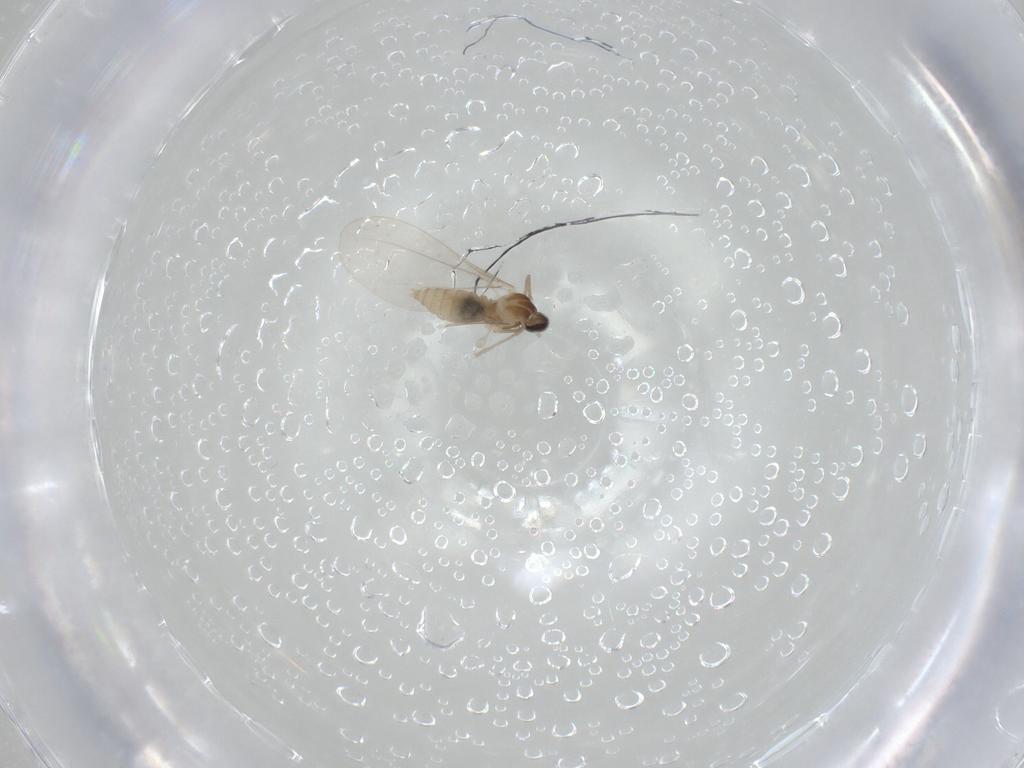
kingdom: Animalia
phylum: Arthropoda
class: Insecta
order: Diptera
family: Cecidomyiidae
